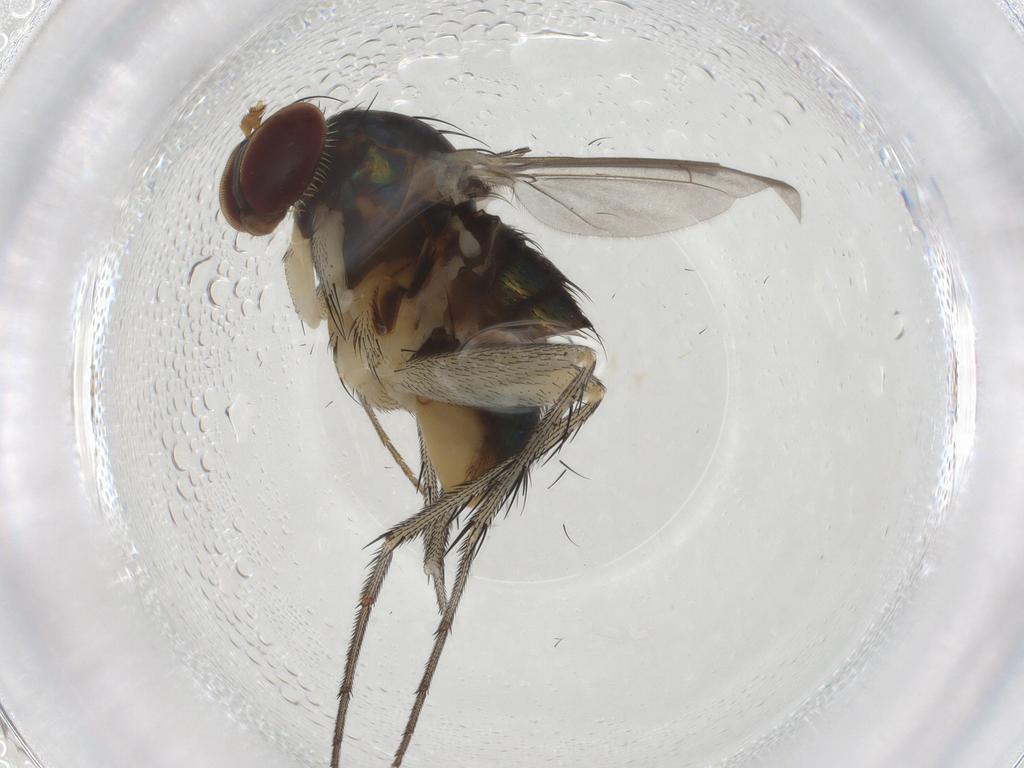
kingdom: Animalia
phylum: Arthropoda
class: Insecta
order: Diptera
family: Dolichopodidae
